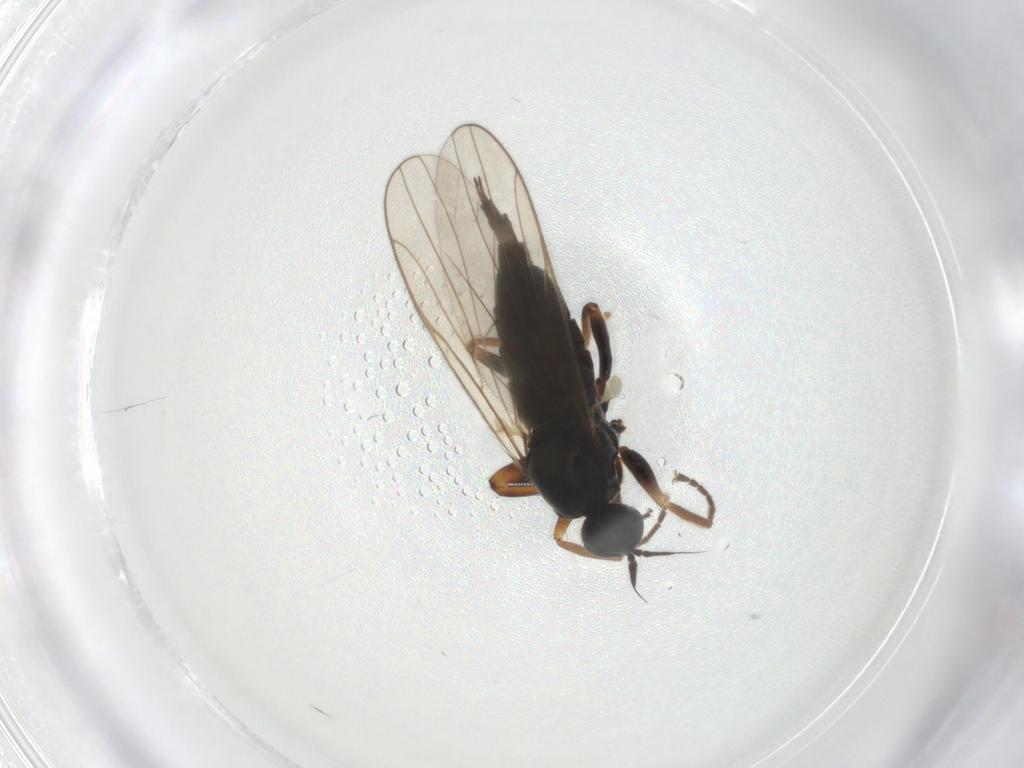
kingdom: Animalia
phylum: Arthropoda
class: Insecta
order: Diptera
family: Hybotidae
